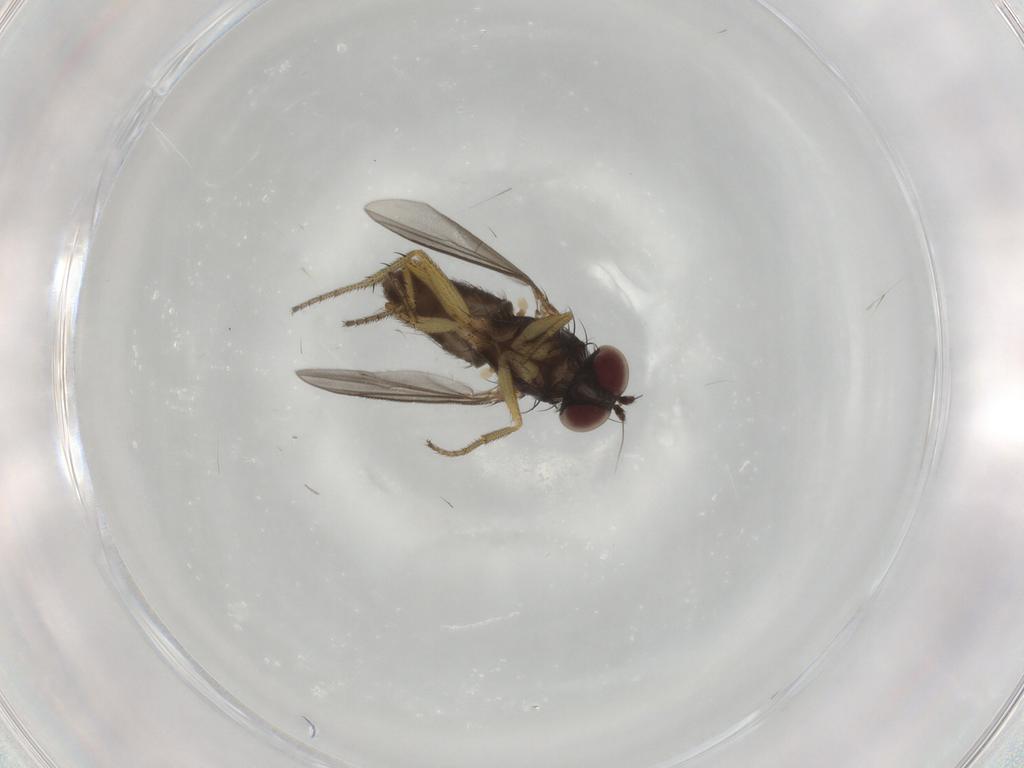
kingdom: Animalia
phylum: Arthropoda
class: Insecta
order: Diptera
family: Dolichopodidae
